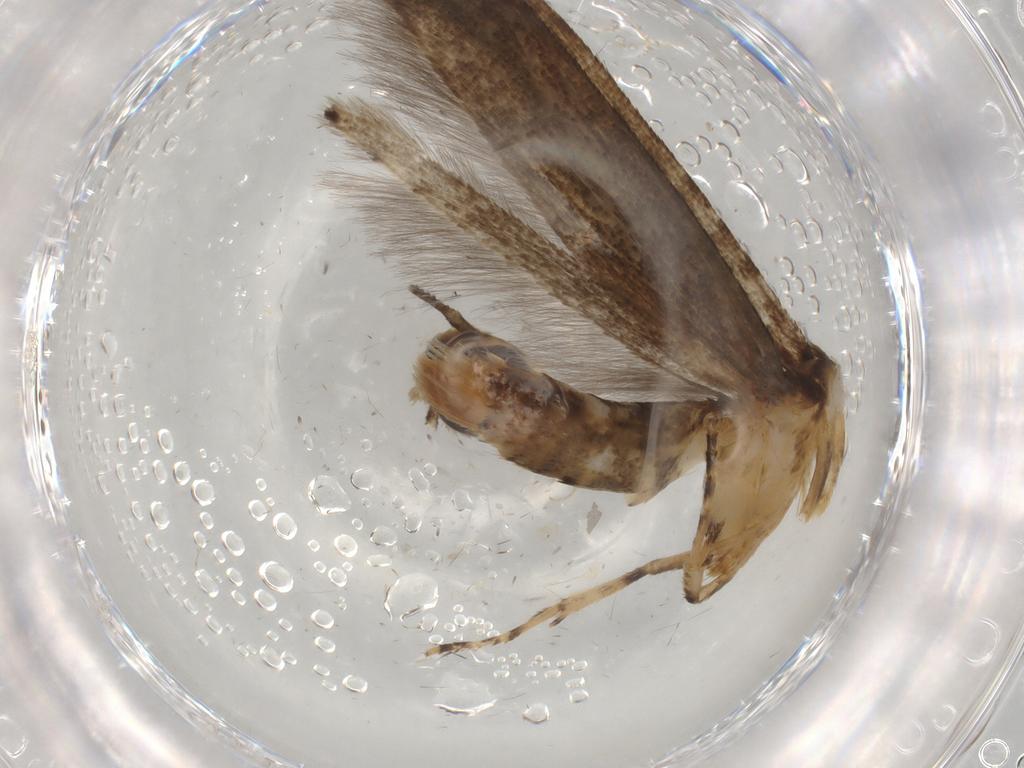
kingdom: Animalia
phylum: Arthropoda
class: Insecta
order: Lepidoptera
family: Cosmopterigidae
